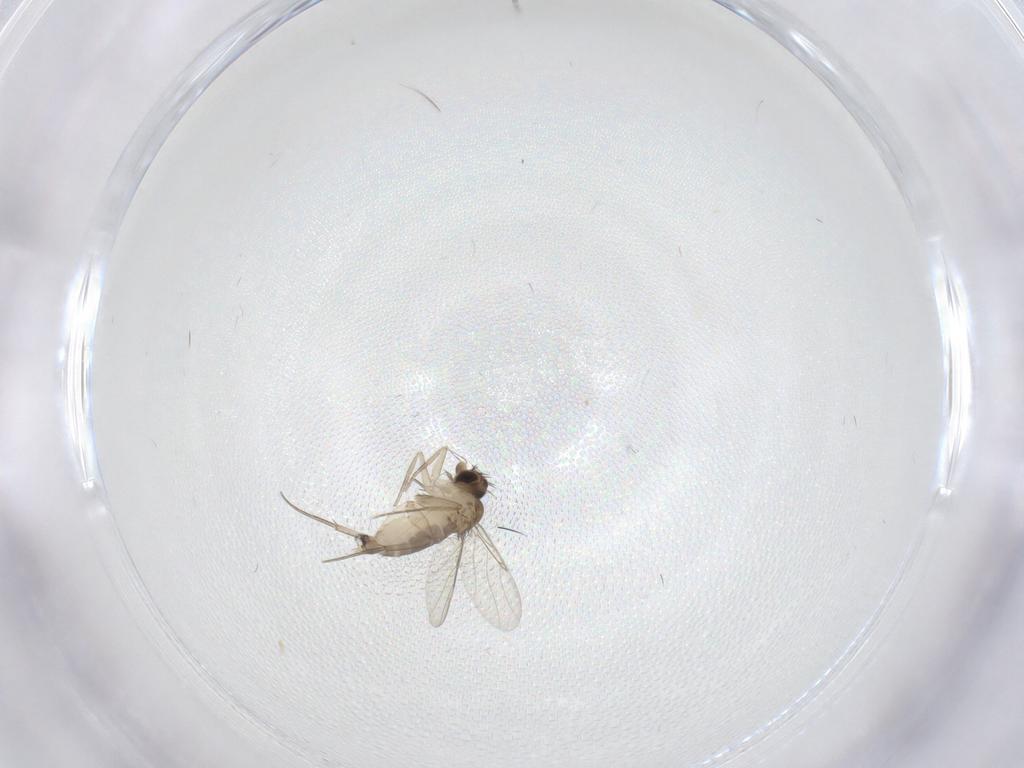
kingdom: Animalia
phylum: Arthropoda
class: Insecta
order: Diptera
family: Phoridae
